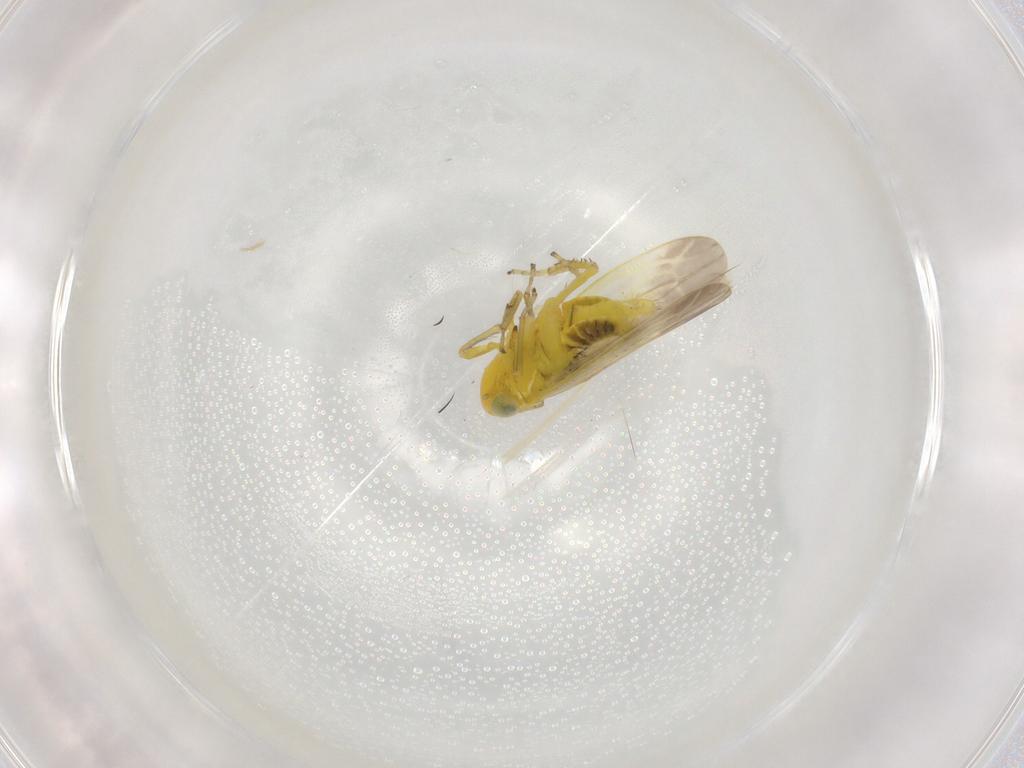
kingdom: Animalia
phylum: Arthropoda
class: Insecta
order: Hemiptera
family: Cicadellidae
